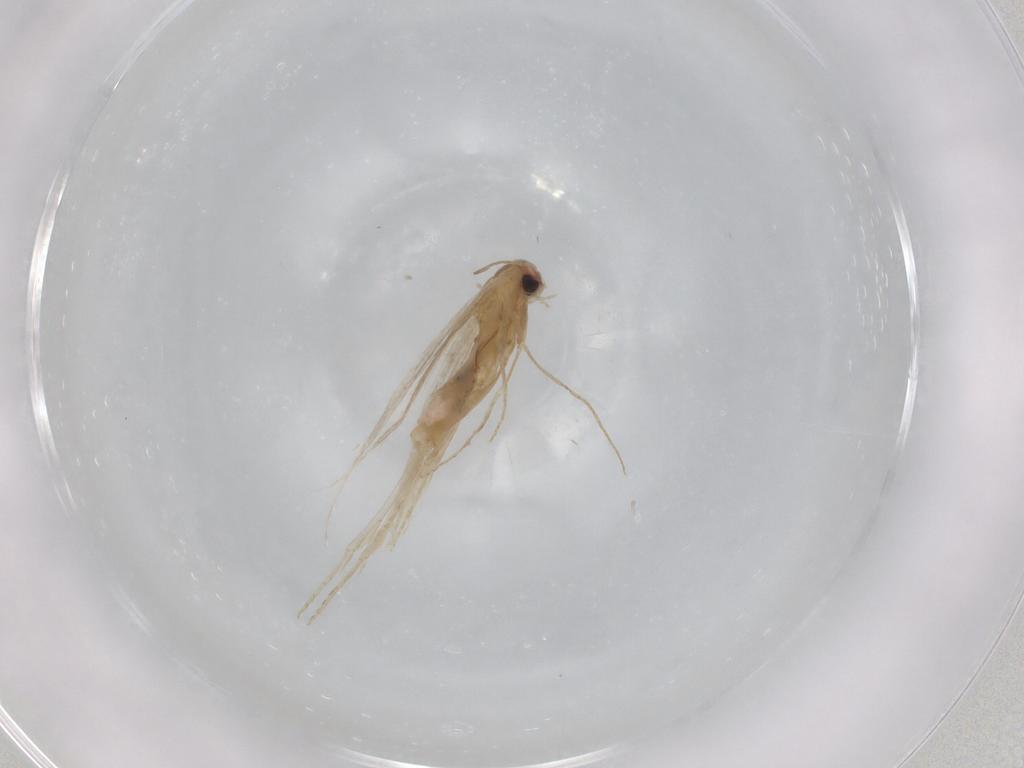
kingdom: Animalia
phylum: Arthropoda
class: Insecta
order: Lepidoptera
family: Coleophoridae
